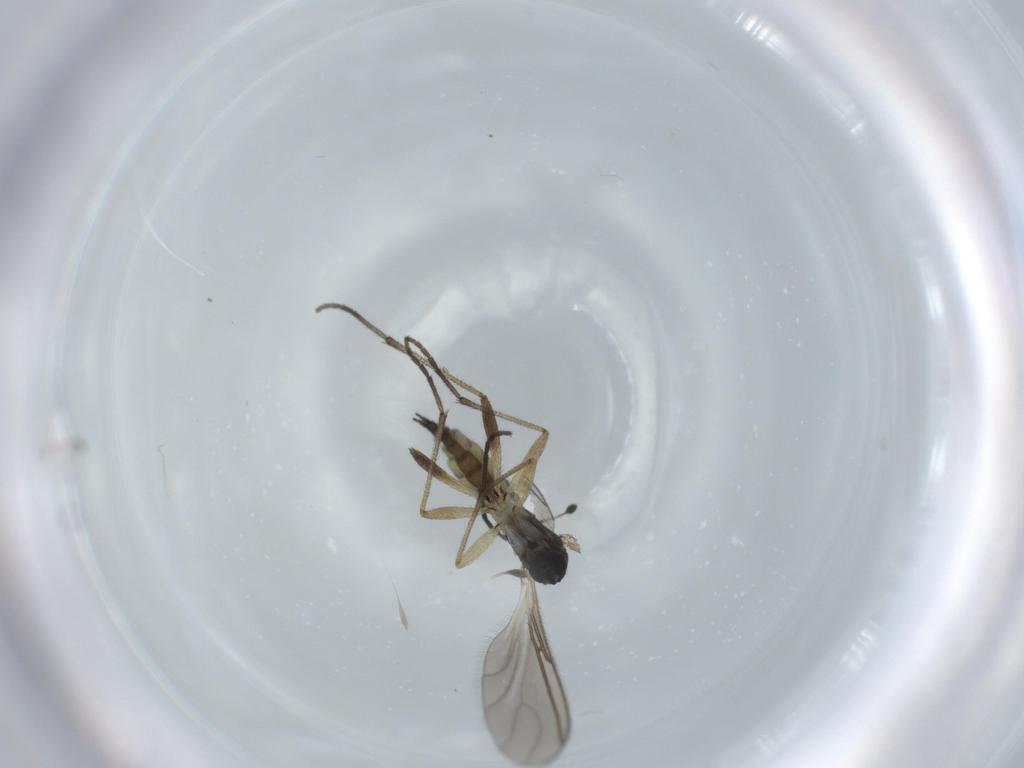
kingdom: Animalia
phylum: Arthropoda
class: Insecta
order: Diptera
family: Sciaridae
